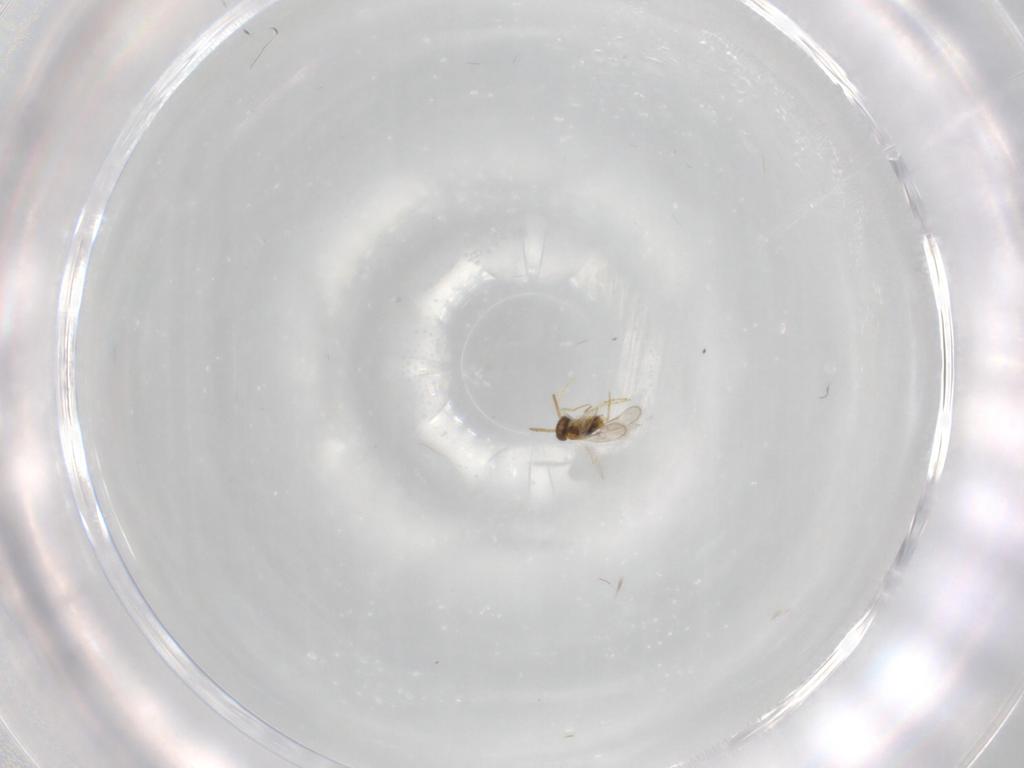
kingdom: Animalia
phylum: Arthropoda
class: Insecta
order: Hymenoptera
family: Aphelinidae
